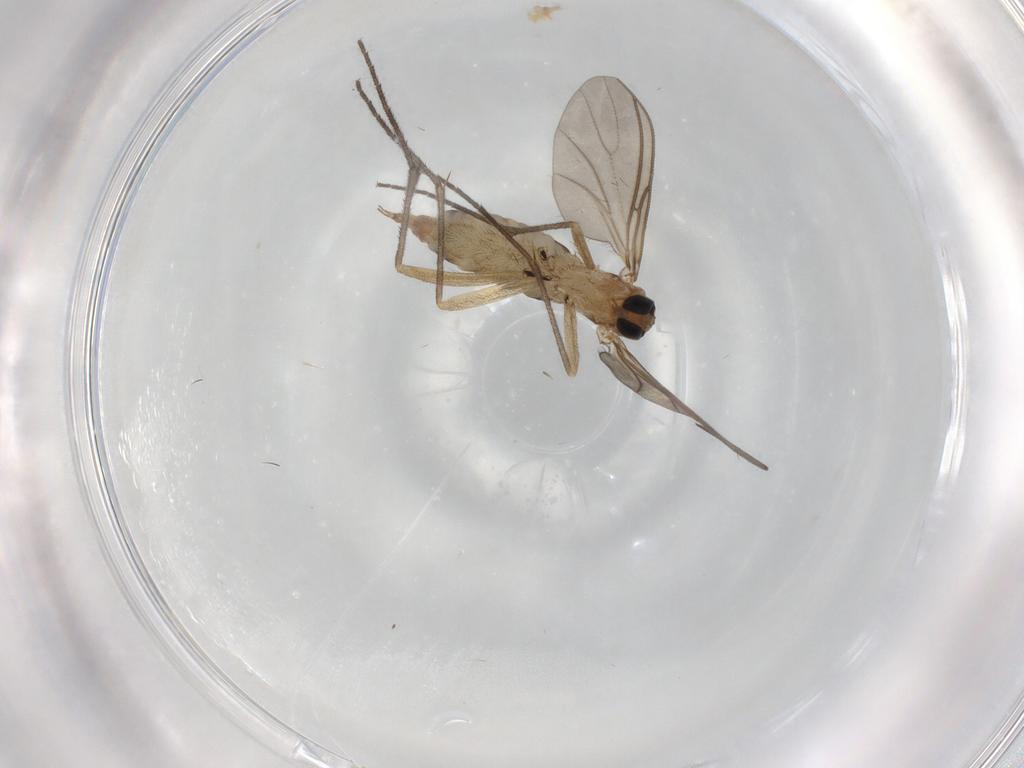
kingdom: Animalia
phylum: Arthropoda
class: Insecta
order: Diptera
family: Sciaridae
